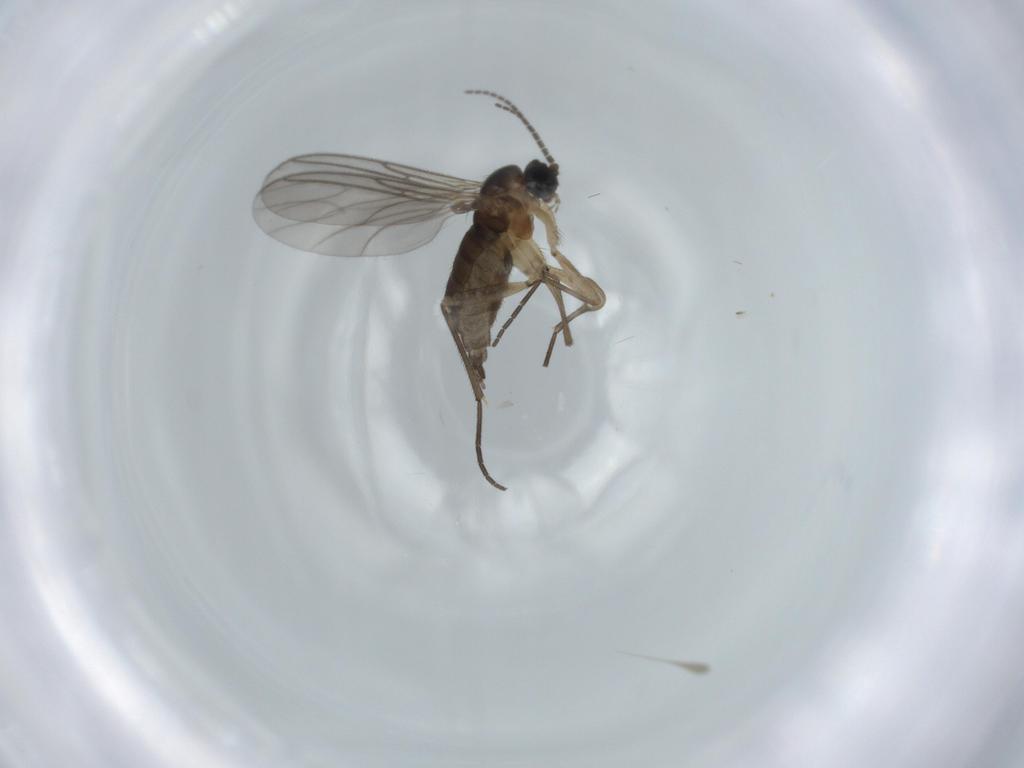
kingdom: Animalia
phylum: Arthropoda
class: Insecta
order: Diptera
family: Sciaridae
